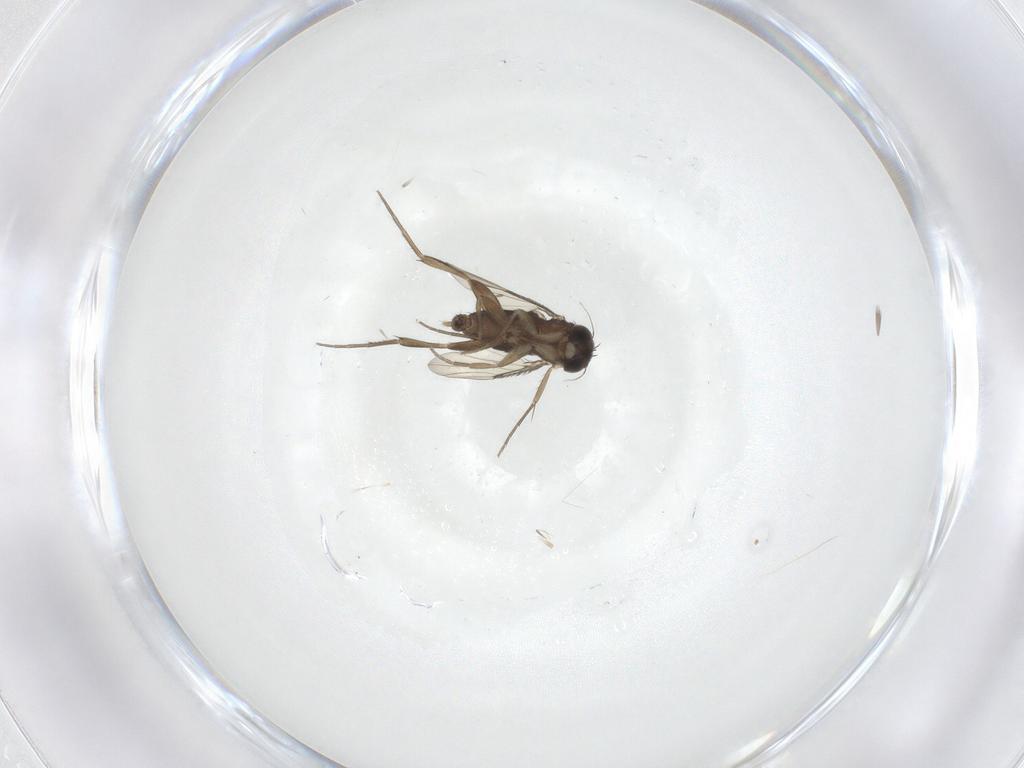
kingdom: Animalia
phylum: Arthropoda
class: Insecta
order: Diptera
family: Phoridae
